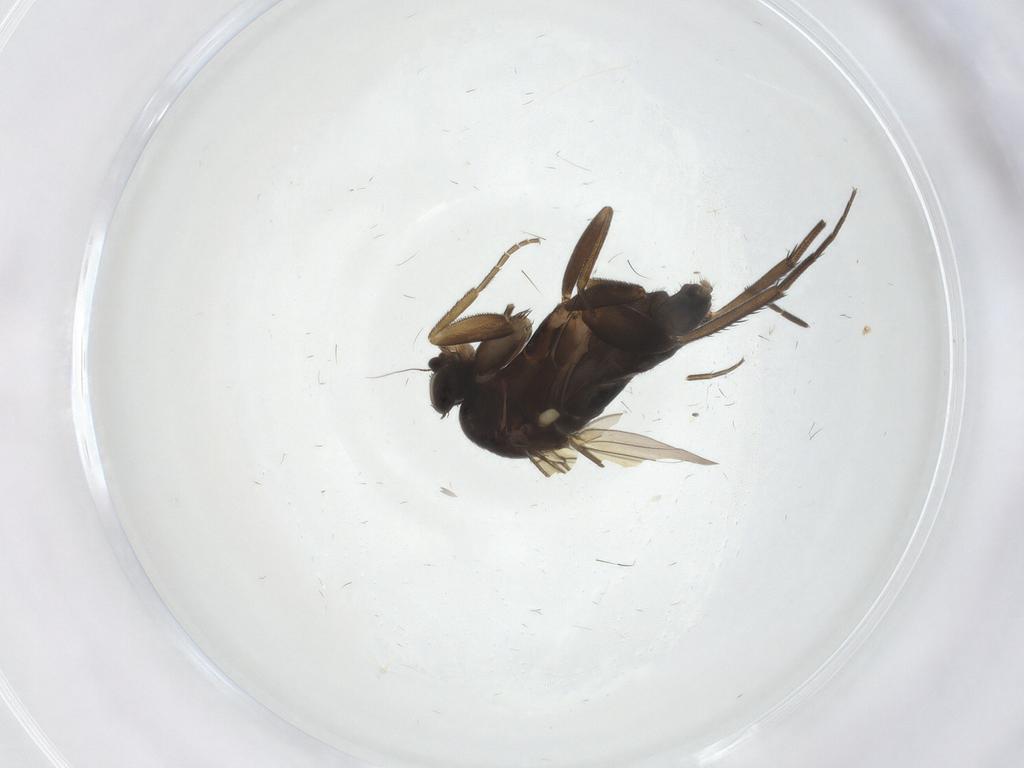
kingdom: Animalia
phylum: Arthropoda
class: Insecta
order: Diptera
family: Phoridae
